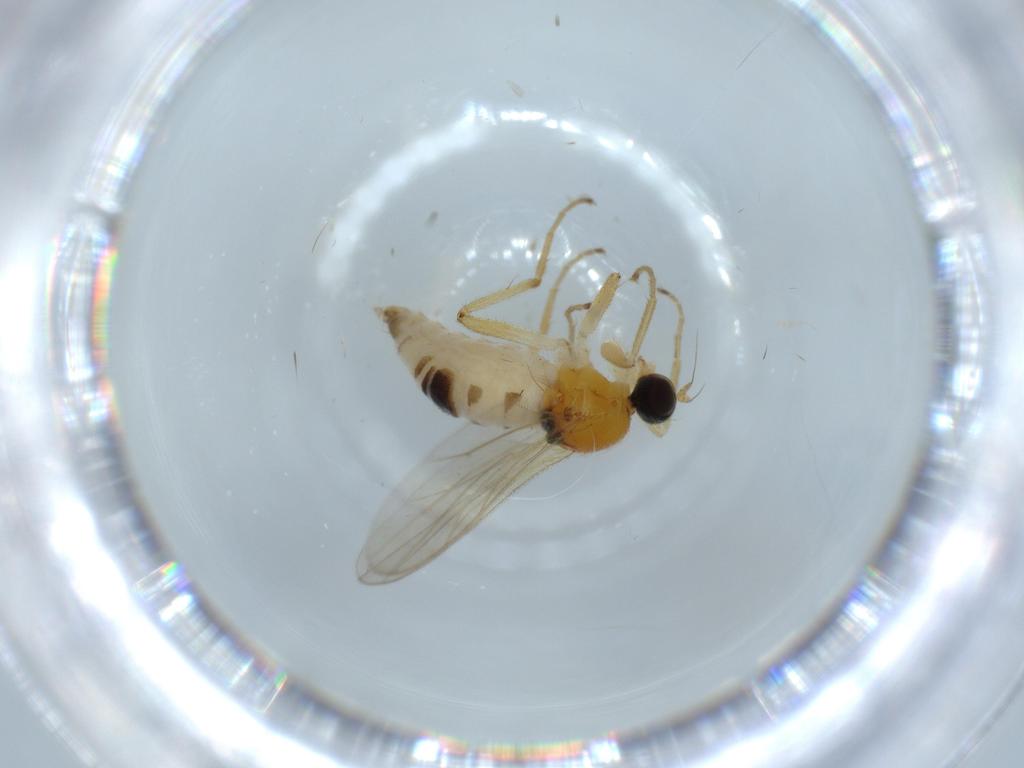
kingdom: Animalia
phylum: Arthropoda
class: Insecta
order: Diptera
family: Hybotidae
